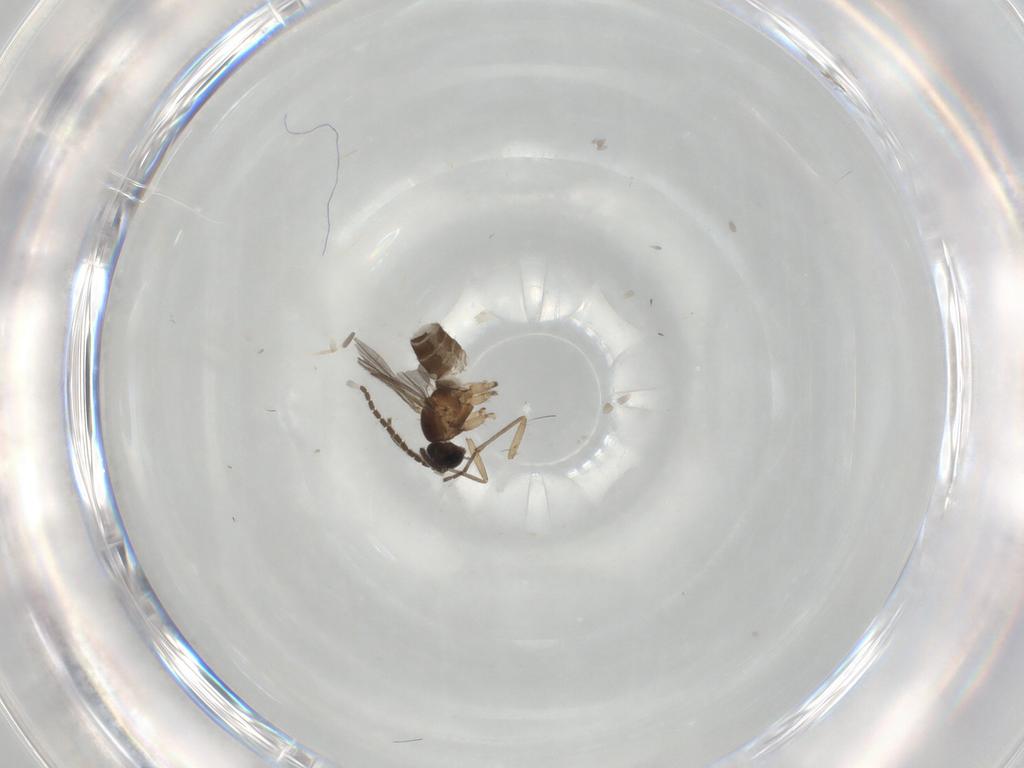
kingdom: Animalia
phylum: Arthropoda
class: Insecta
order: Diptera
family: Sciaridae
